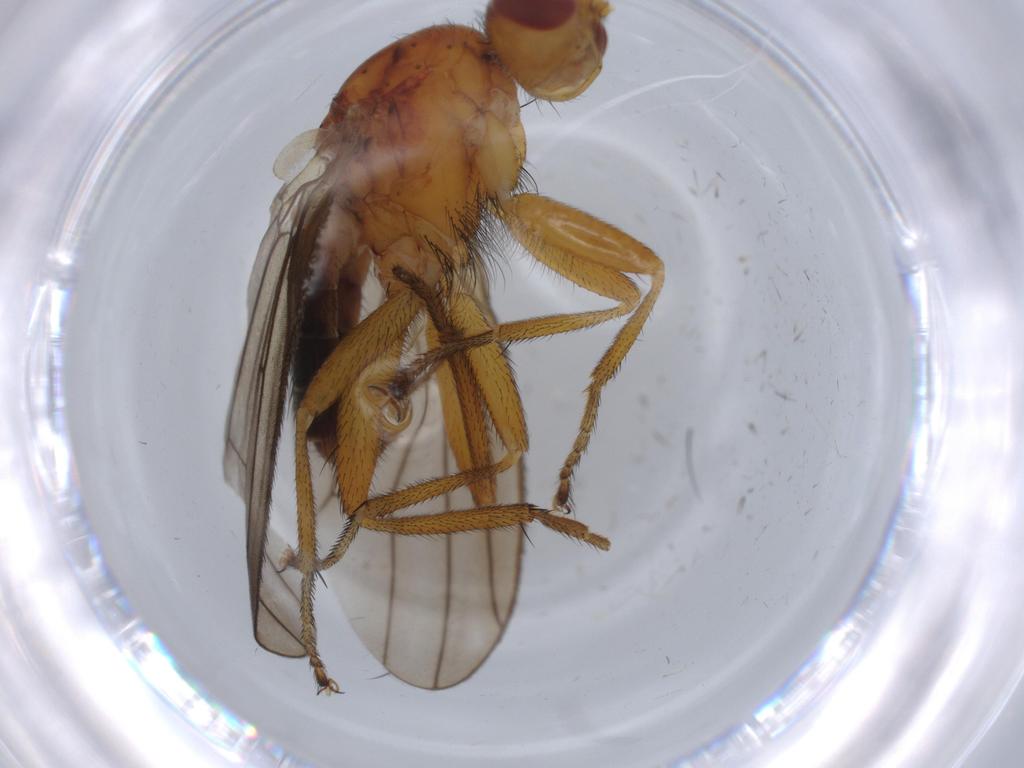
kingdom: Animalia
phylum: Arthropoda
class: Insecta
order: Diptera
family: Heleomyzidae
